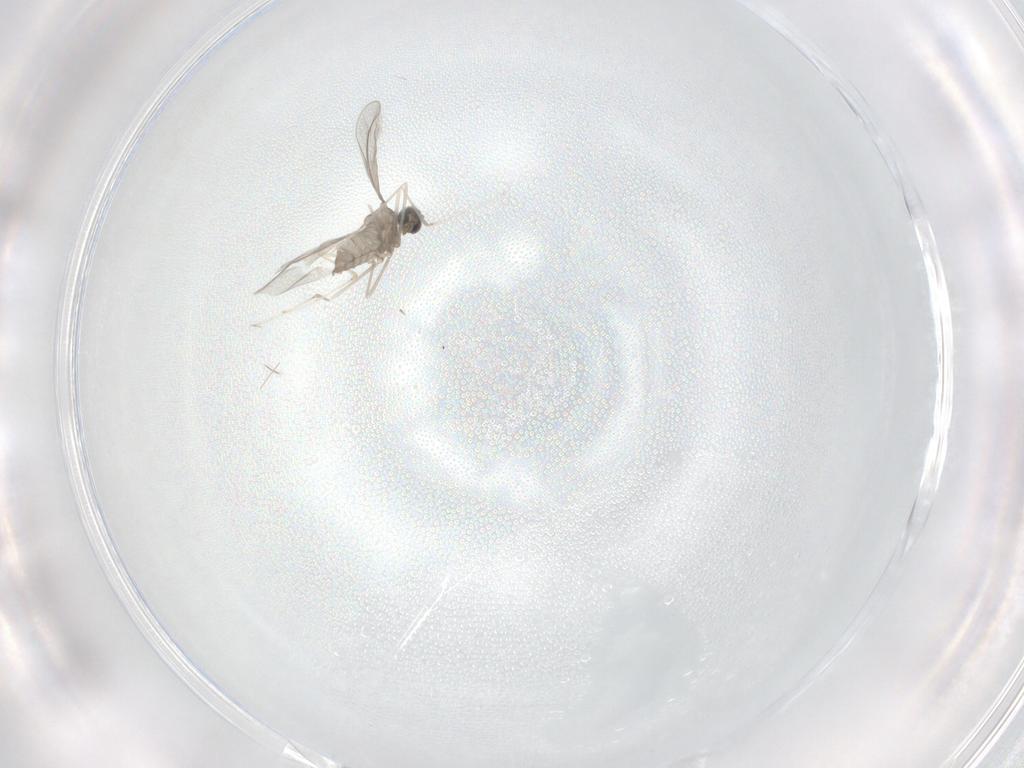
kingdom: Animalia
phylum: Arthropoda
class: Insecta
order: Diptera
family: Cecidomyiidae
